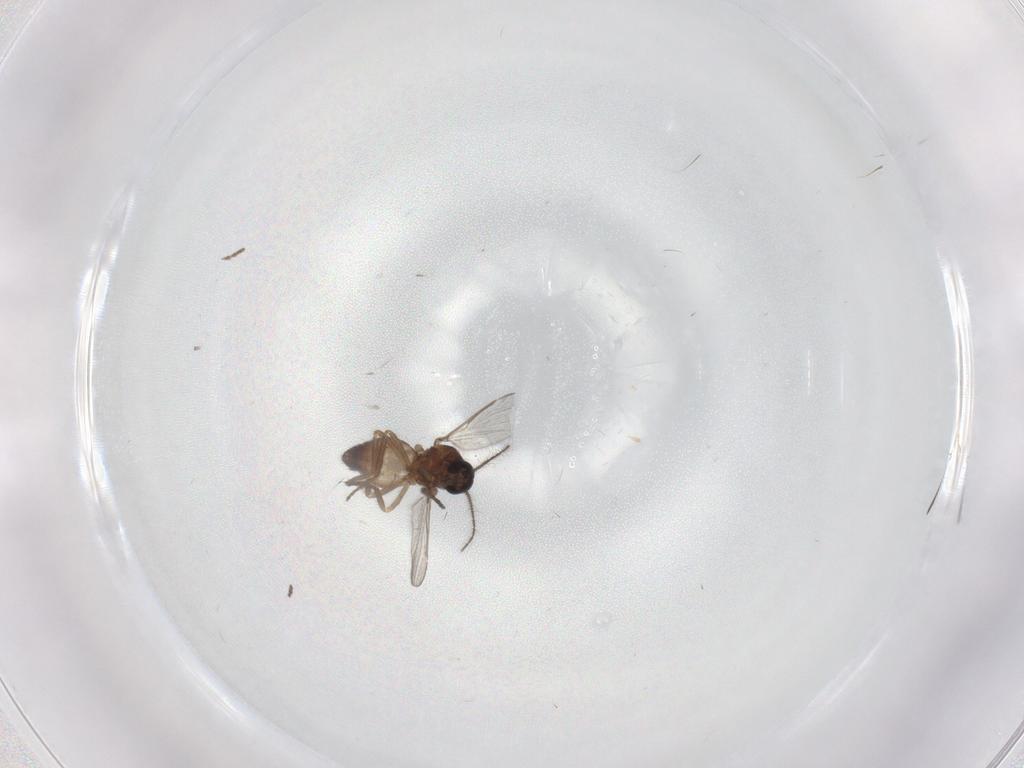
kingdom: Animalia
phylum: Arthropoda
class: Insecta
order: Diptera
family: Ceratopogonidae
